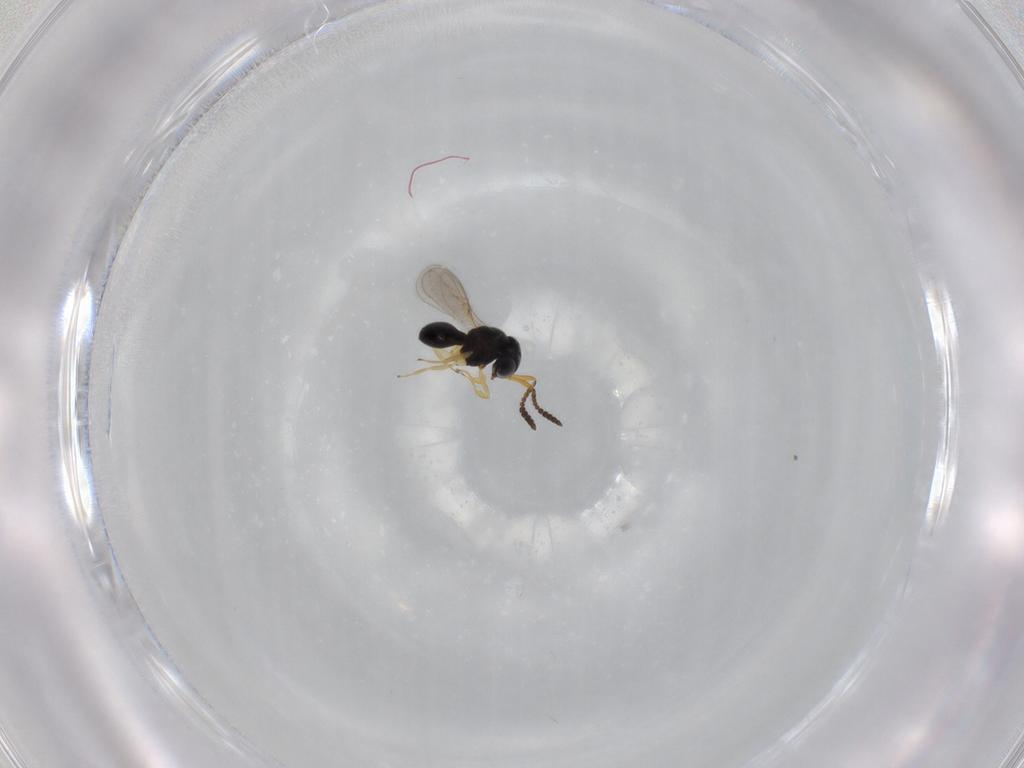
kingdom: Animalia
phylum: Arthropoda
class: Insecta
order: Hymenoptera
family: Scelionidae
